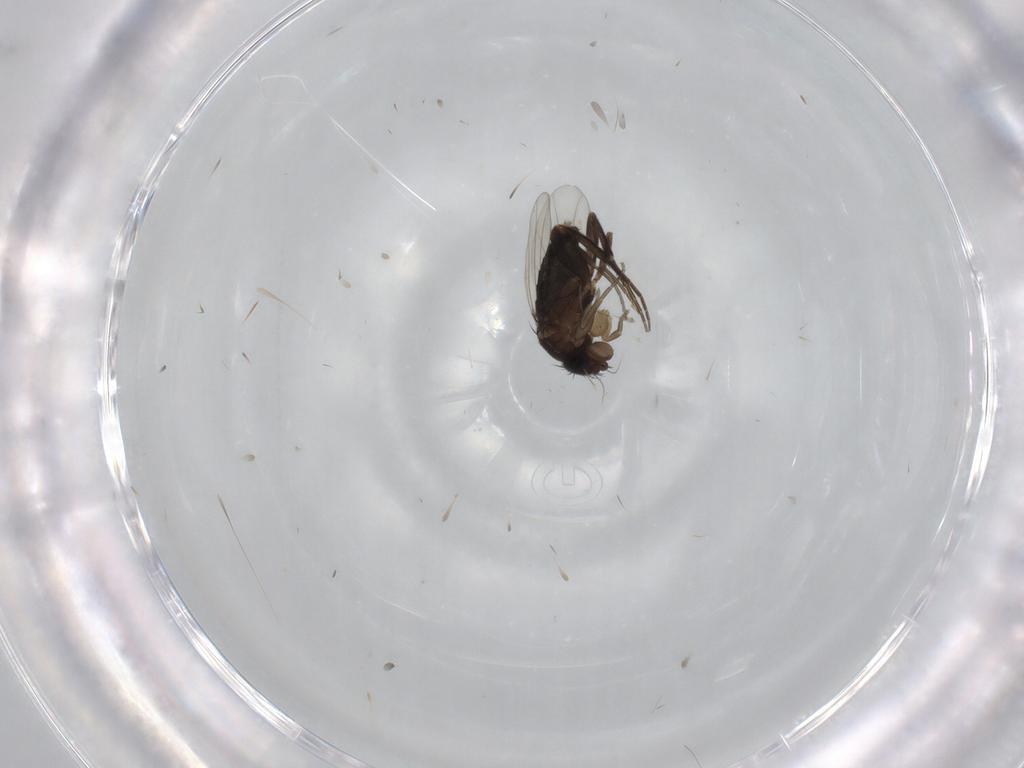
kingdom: Animalia
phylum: Arthropoda
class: Insecta
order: Diptera
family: Phoridae
